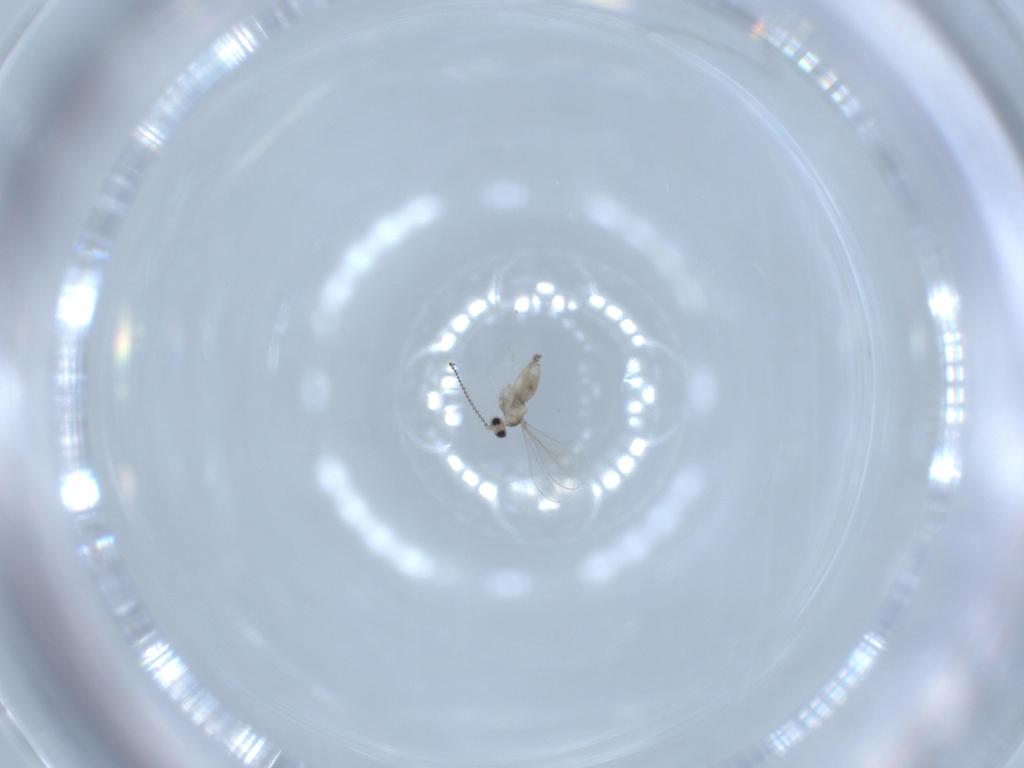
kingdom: Animalia
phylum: Arthropoda
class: Insecta
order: Diptera
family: Cecidomyiidae
